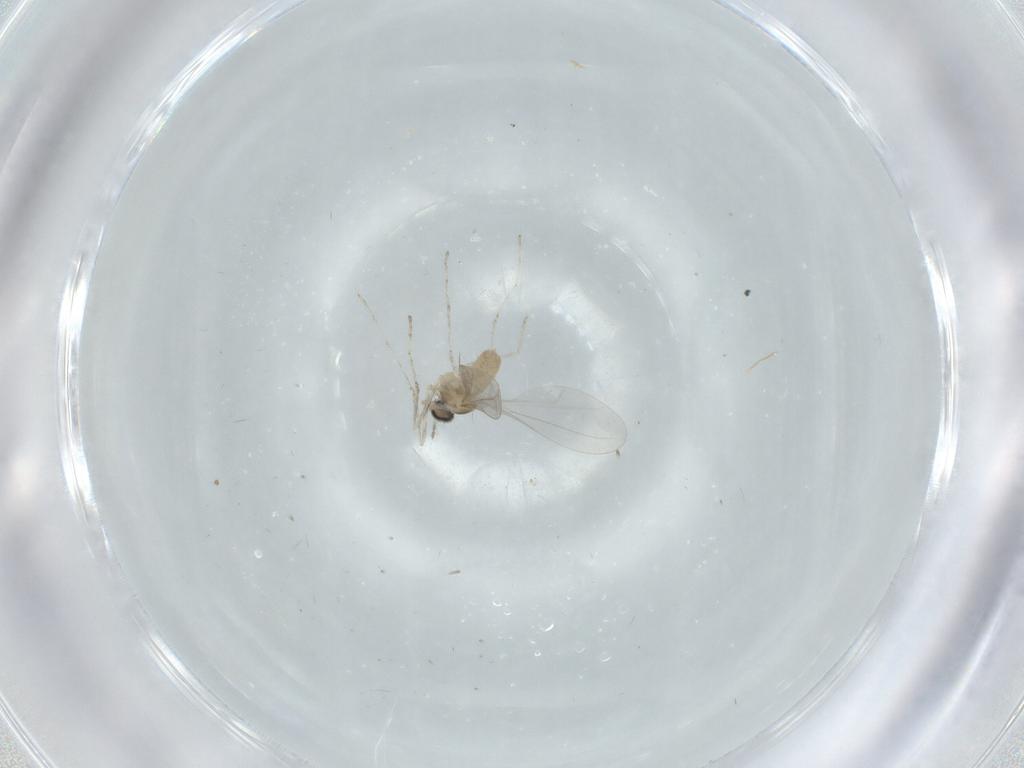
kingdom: Animalia
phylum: Arthropoda
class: Insecta
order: Diptera
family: Cecidomyiidae
